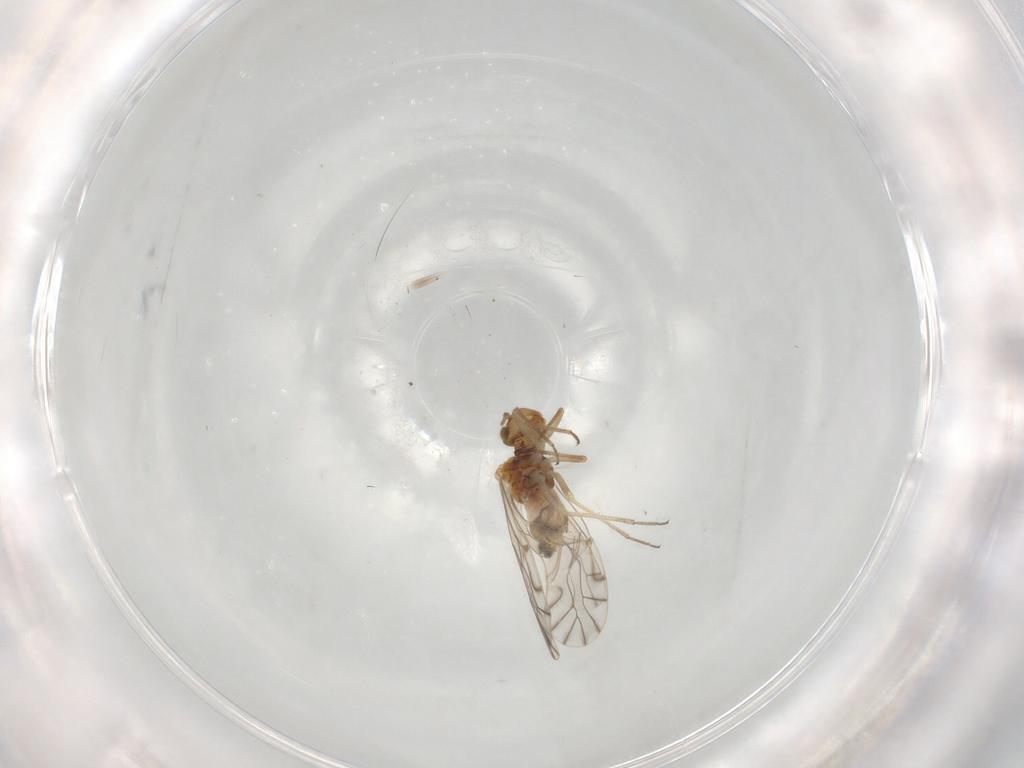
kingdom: Animalia
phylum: Arthropoda
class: Insecta
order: Psocodea
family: Lachesillidae
